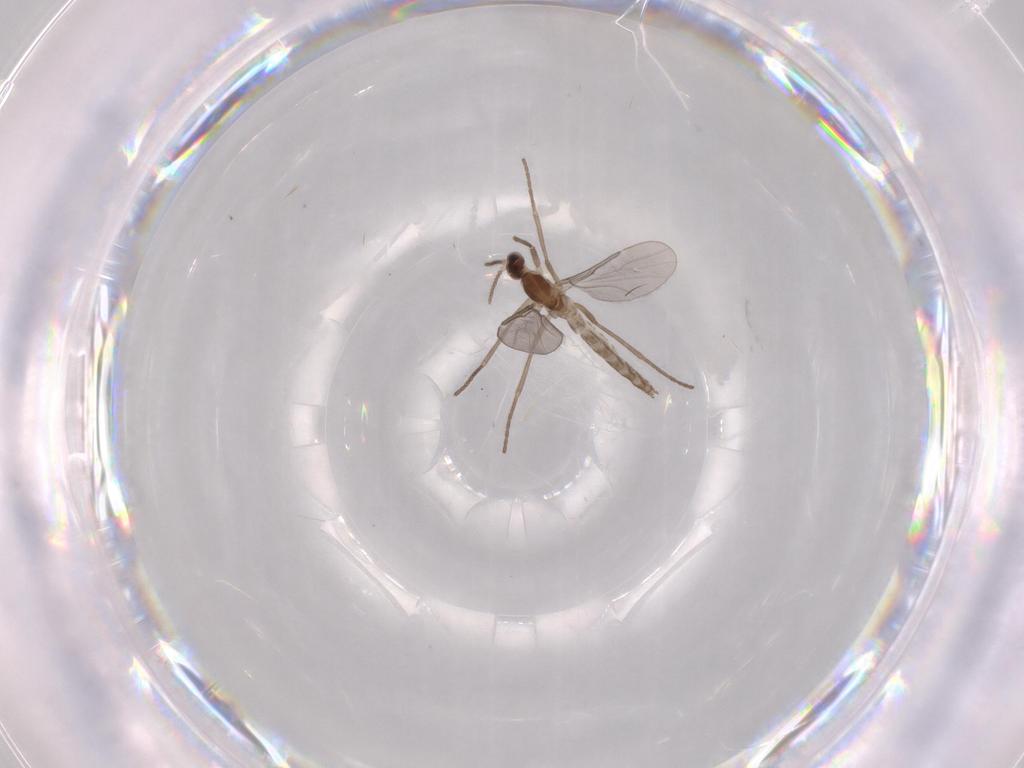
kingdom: Animalia
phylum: Arthropoda
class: Insecta
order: Diptera
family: Cecidomyiidae
